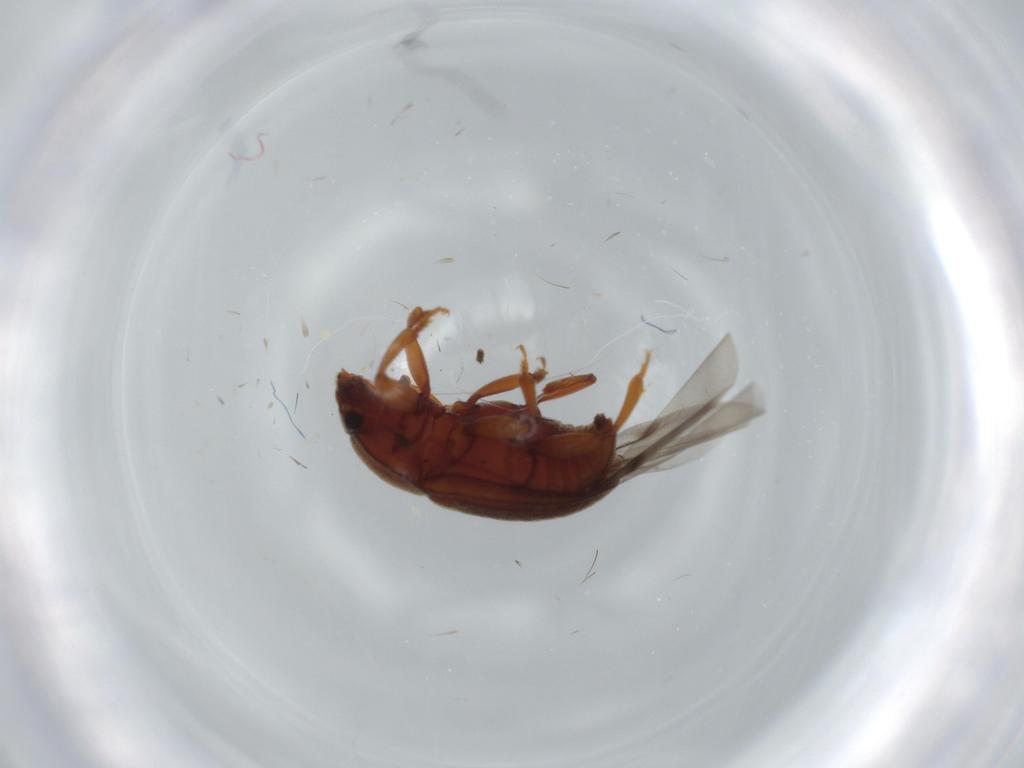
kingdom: Animalia
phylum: Arthropoda
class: Insecta
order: Coleoptera
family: Tenebrionidae
